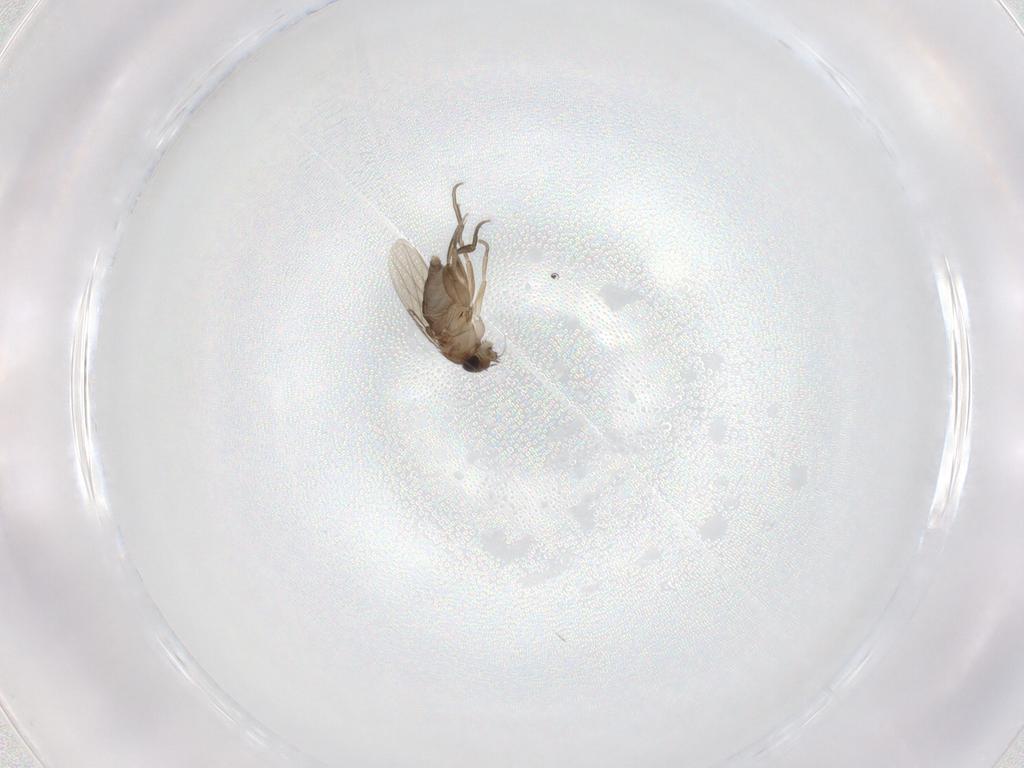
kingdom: Animalia
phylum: Arthropoda
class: Insecta
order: Diptera
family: Phoridae
